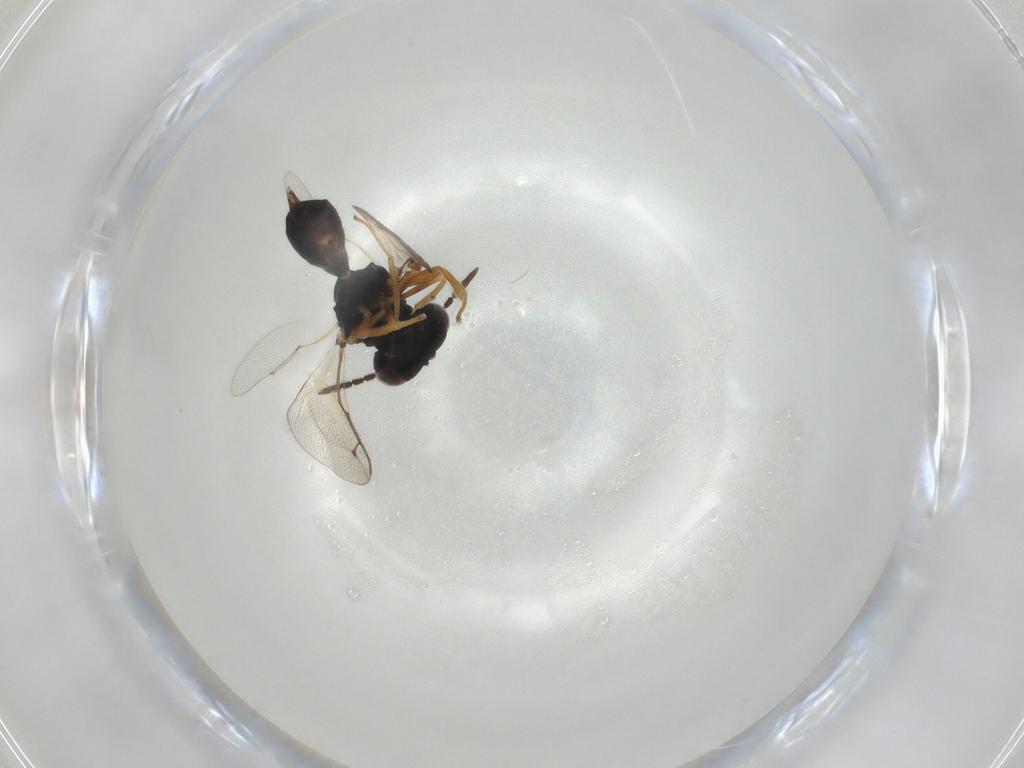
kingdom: Animalia
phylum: Arthropoda
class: Insecta
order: Hymenoptera
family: Pteromalidae
